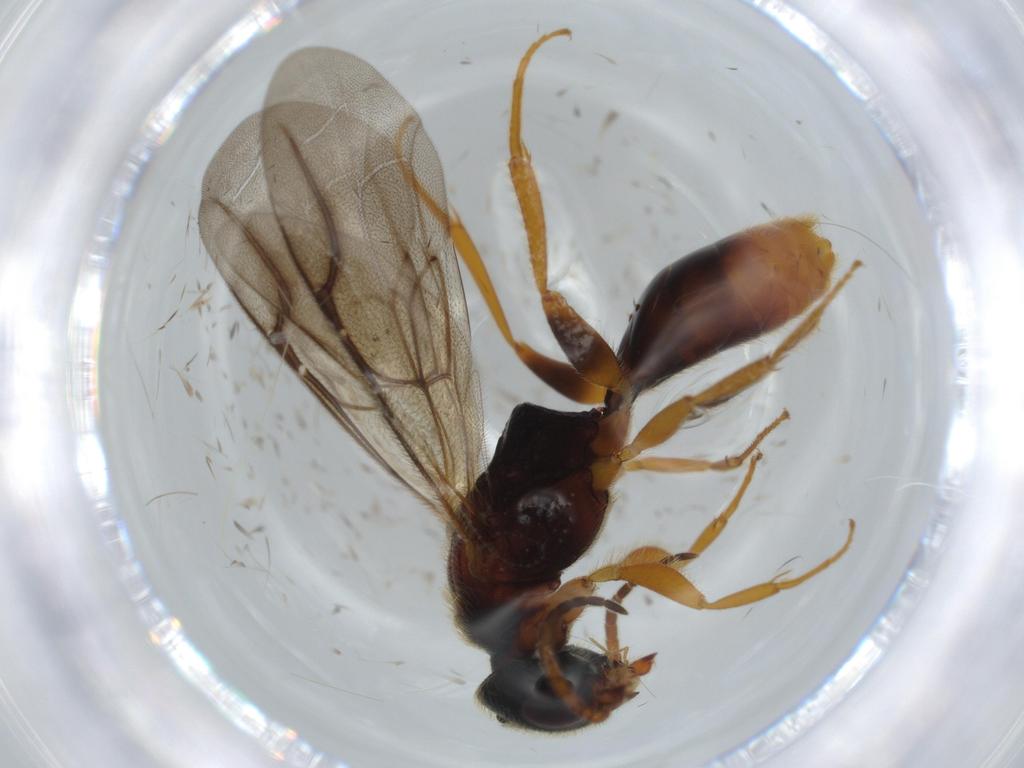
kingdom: Animalia
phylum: Arthropoda
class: Insecta
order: Hymenoptera
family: Bethylidae
